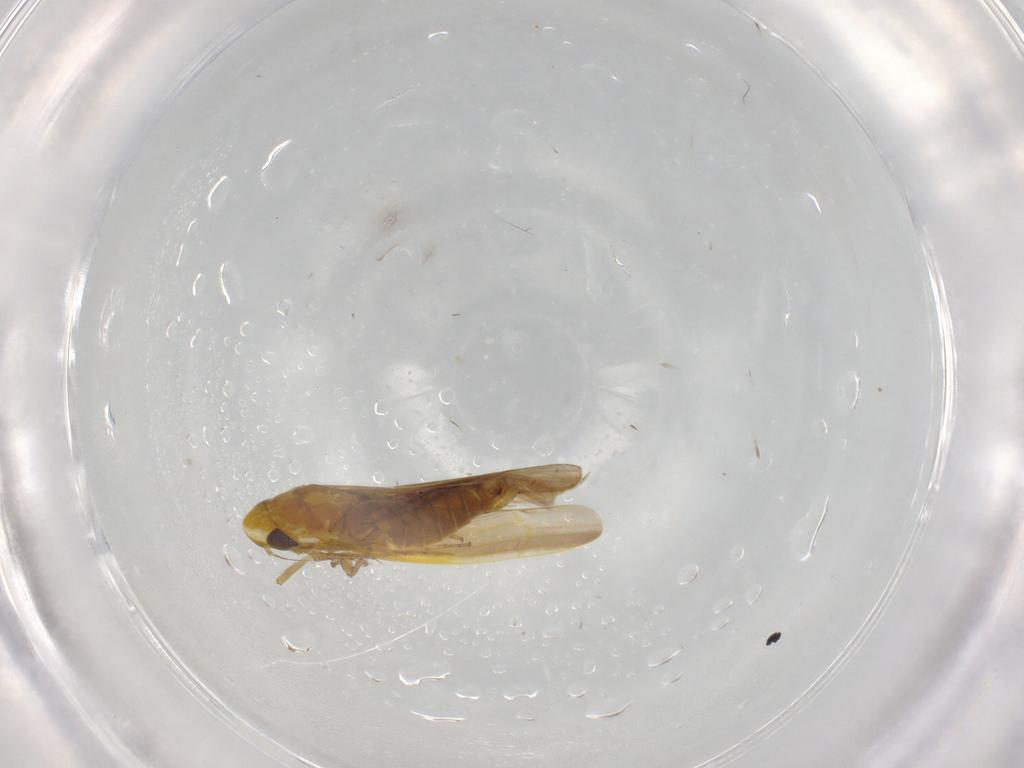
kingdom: Animalia
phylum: Arthropoda
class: Insecta
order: Hemiptera
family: Cicadellidae
